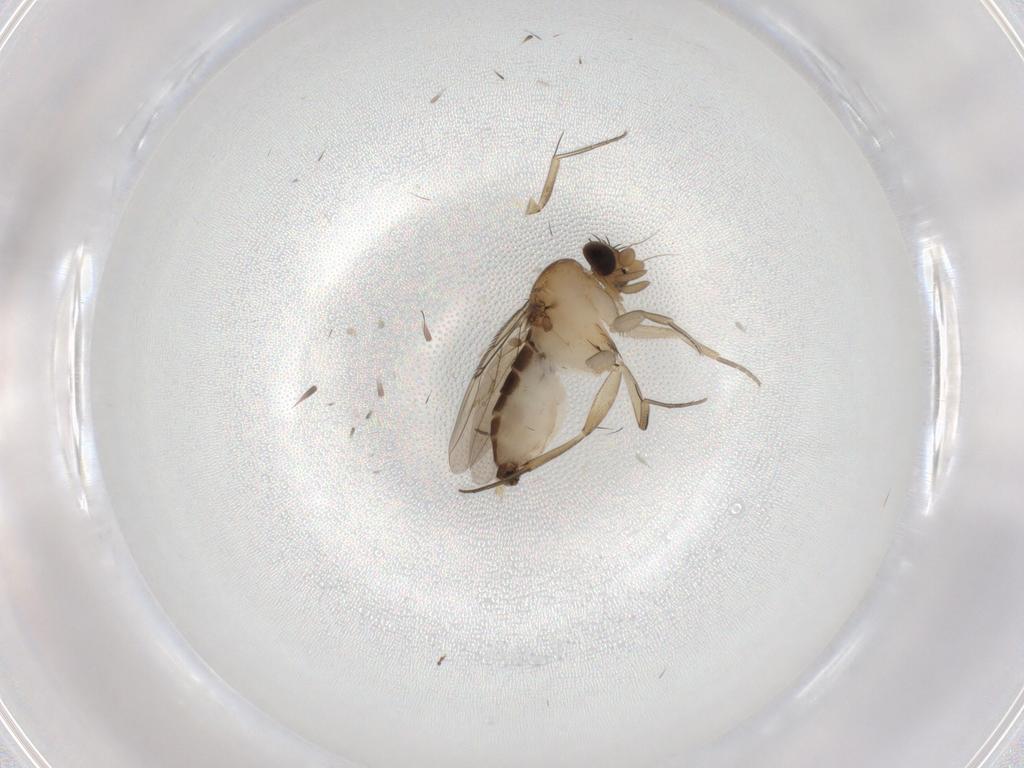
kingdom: Animalia
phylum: Arthropoda
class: Insecta
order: Diptera
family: Phoridae
